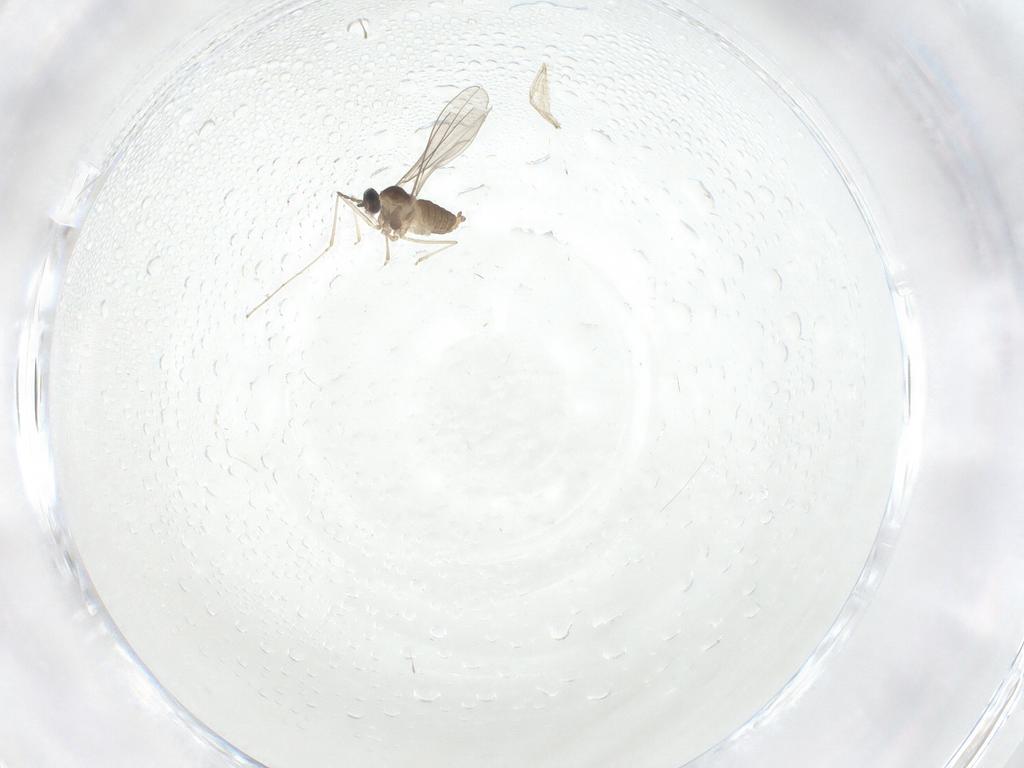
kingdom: Animalia
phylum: Arthropoda
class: Insecta
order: Diptera
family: Cecidomyiidae
